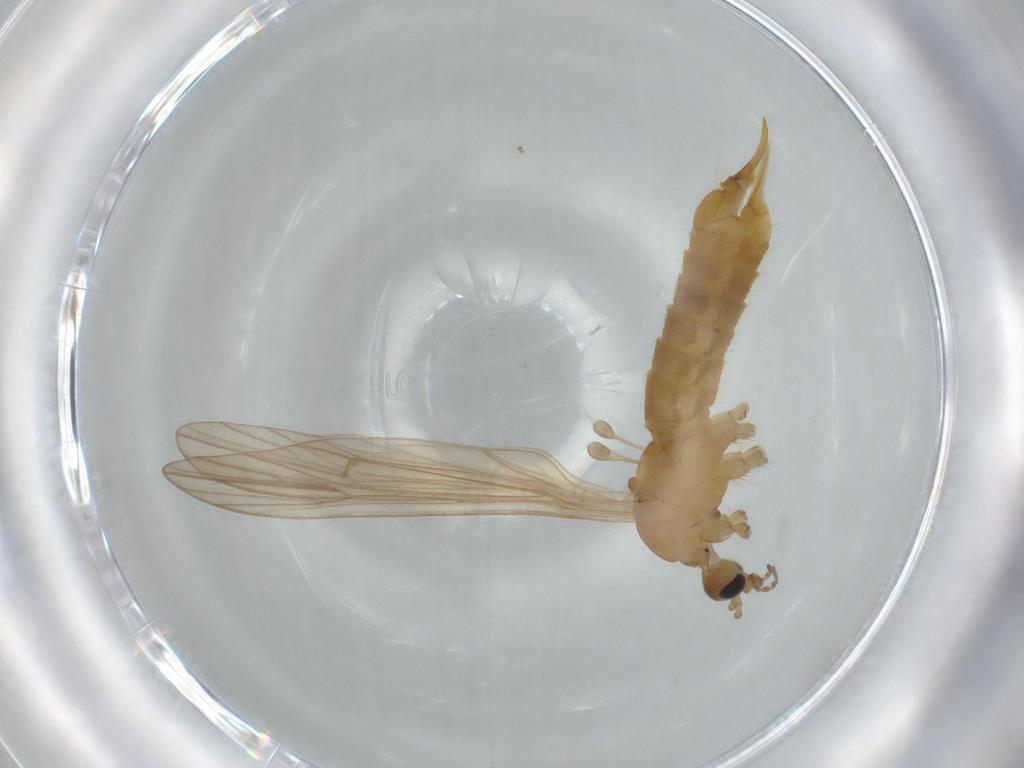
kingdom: Animalia
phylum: Arthropoda
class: Insecta
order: Diptera
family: Limoniidae
